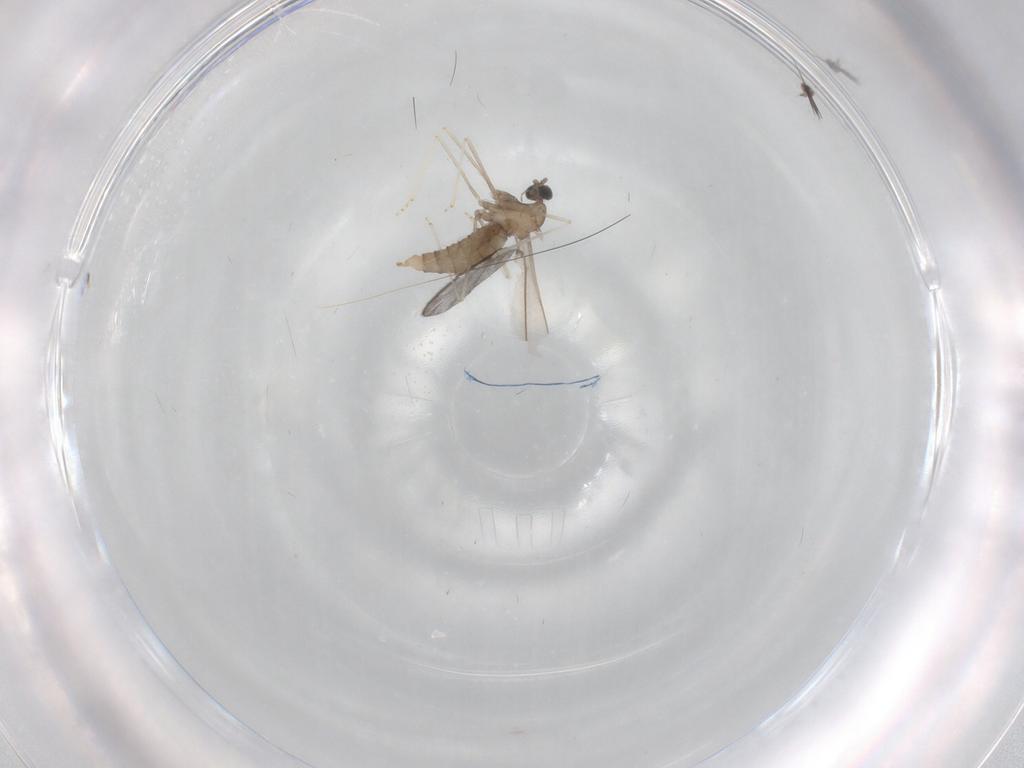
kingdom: Animalia
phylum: Arthropoda
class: Insecta
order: Diptera
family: Cecidomyiidae
